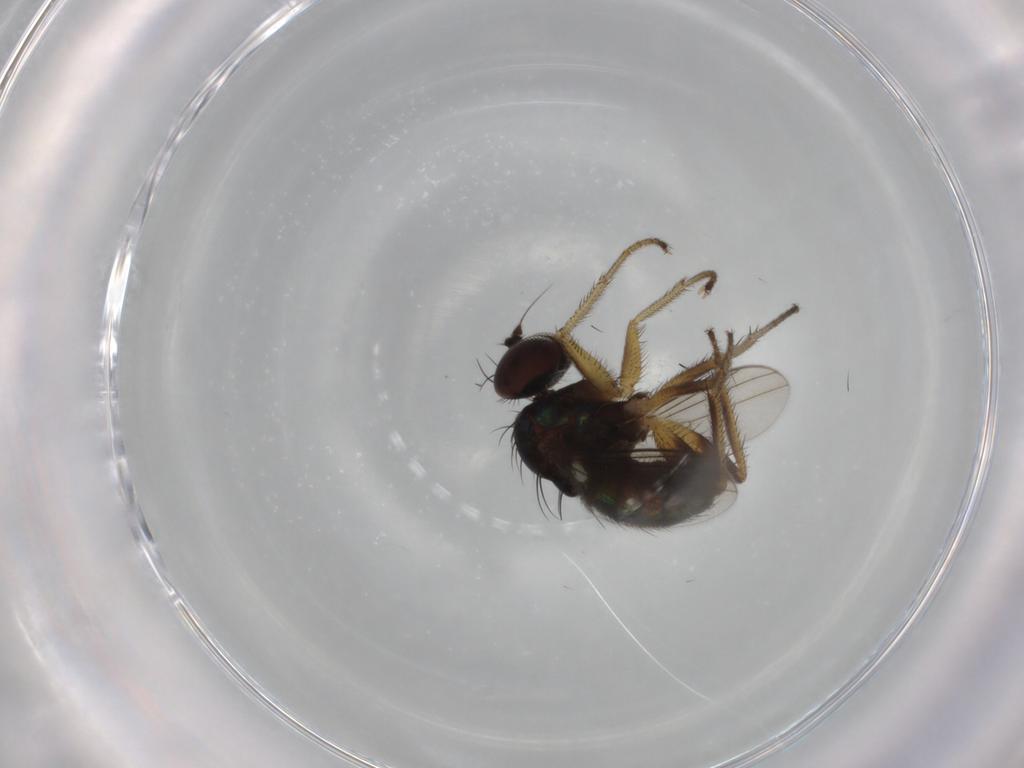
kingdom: Animalia
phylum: Arthropoda
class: Insecta
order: Diptera
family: Dolichopodidae
